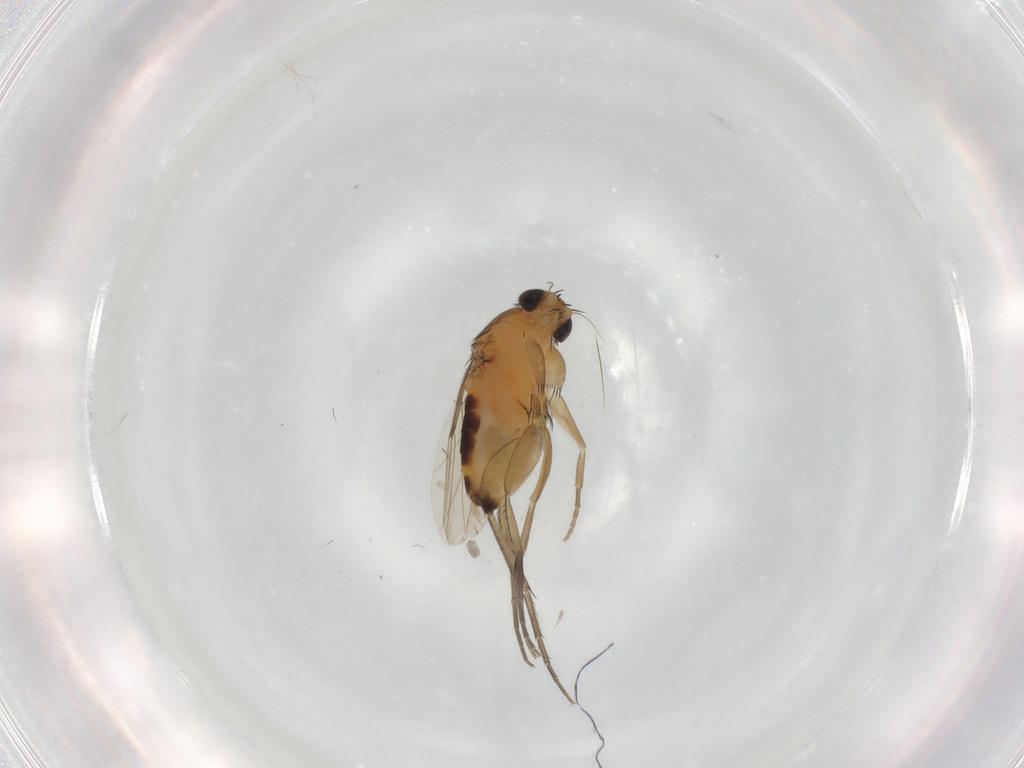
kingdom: Animalia
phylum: Arthropoda
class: Insecta
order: Diptera
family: Phoridae
